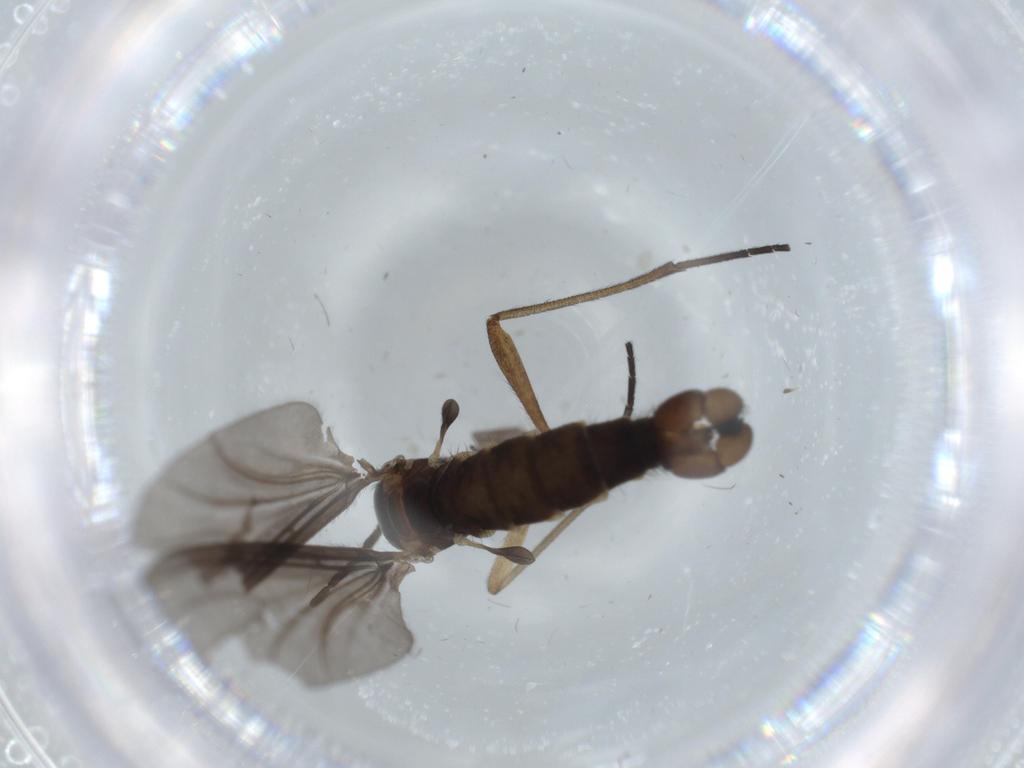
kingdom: Animalia
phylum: Arthropoda
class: Insecta
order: Diptera
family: Sciaridae
